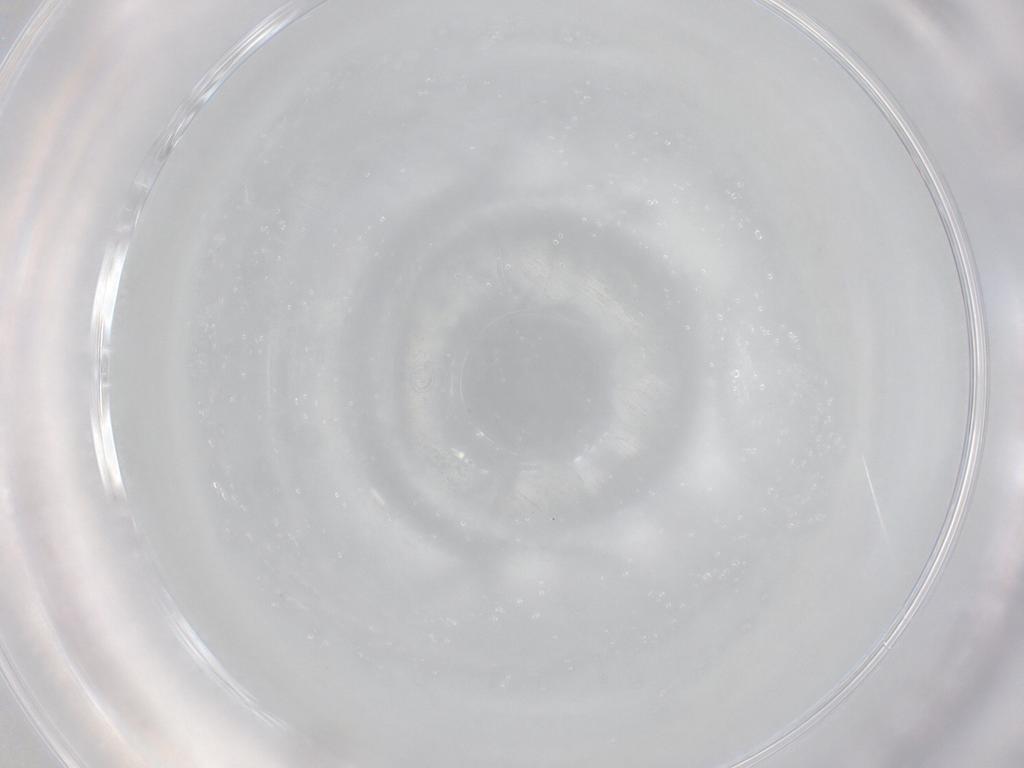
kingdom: Animalia
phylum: Arthropoda
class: Insecta
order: Diptera
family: Cecidomyiidae
